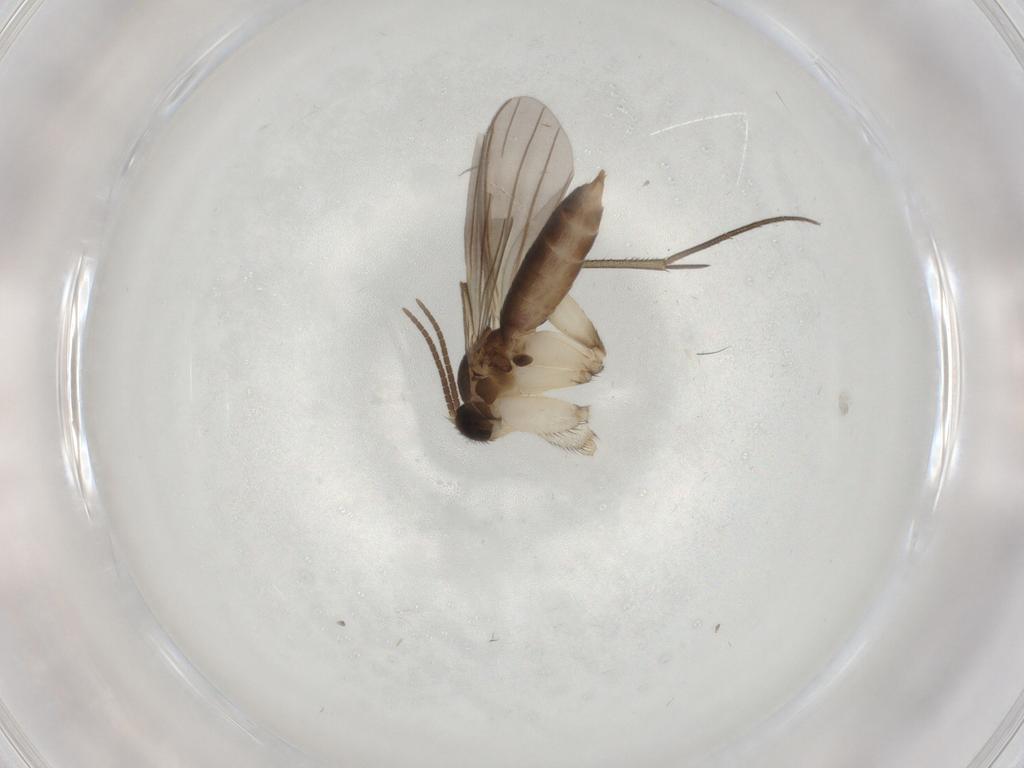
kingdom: Animalia
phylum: Arthropoda
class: Insecta
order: Diptera
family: Mycetophilidae
